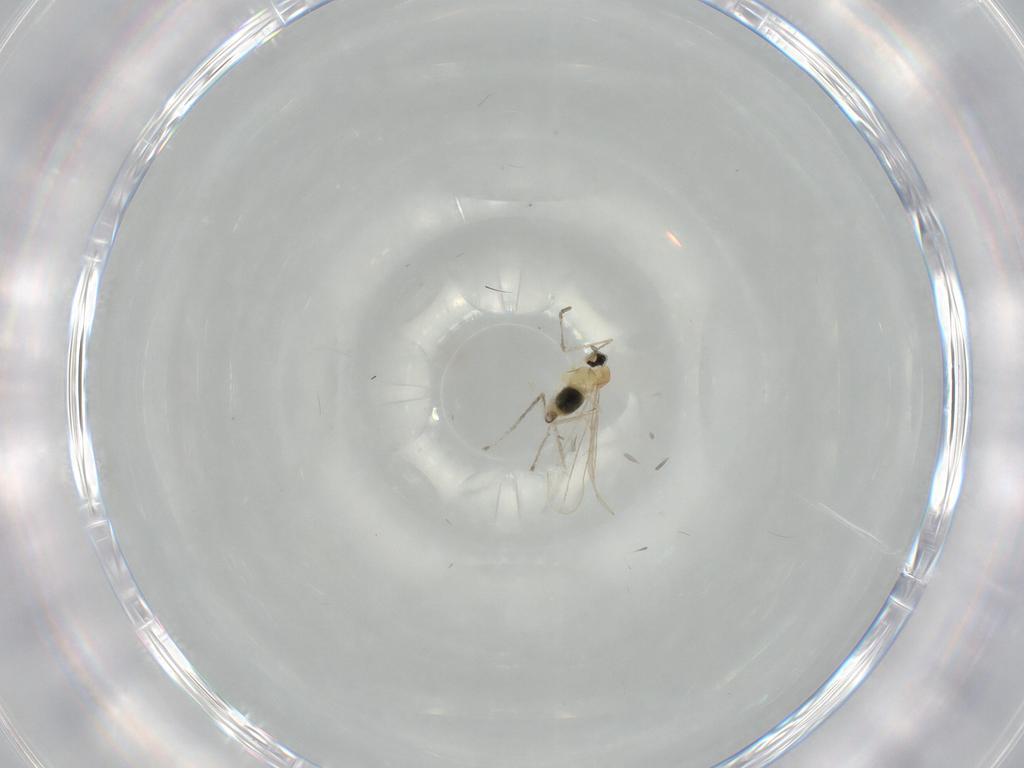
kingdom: Animalia
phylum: Arthropoda
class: Insecta
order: Diptera
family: Cecidomyiidae
